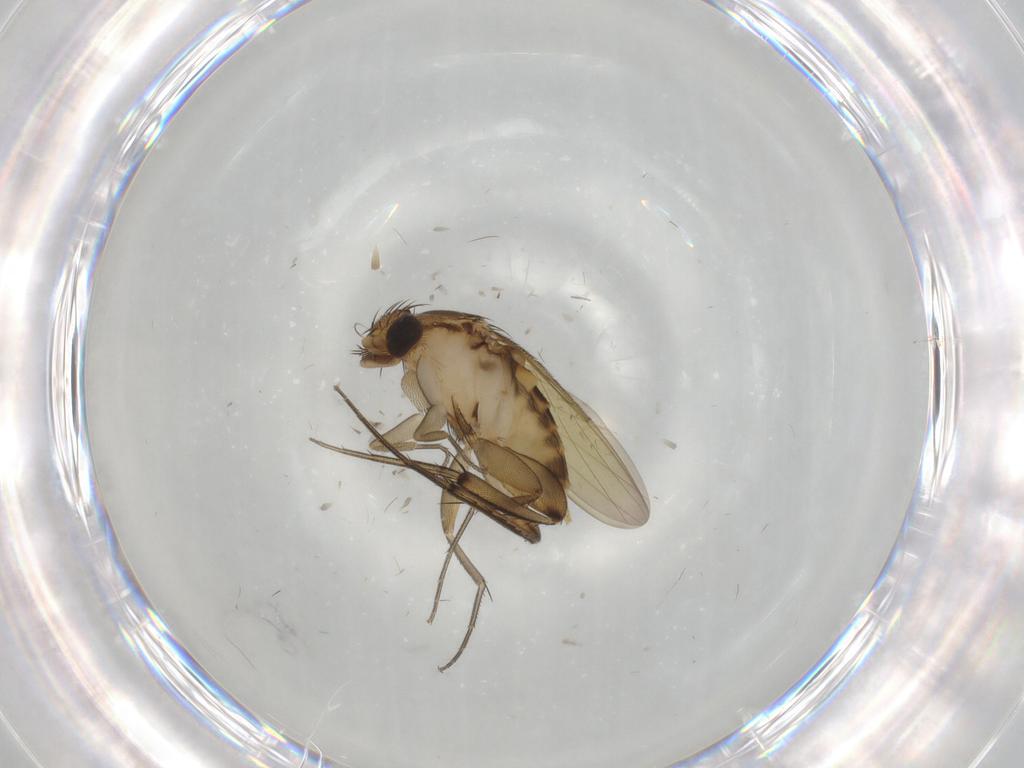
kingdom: Animalia
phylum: Arthropoda
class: Insecta
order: Diptera
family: Phoridae
